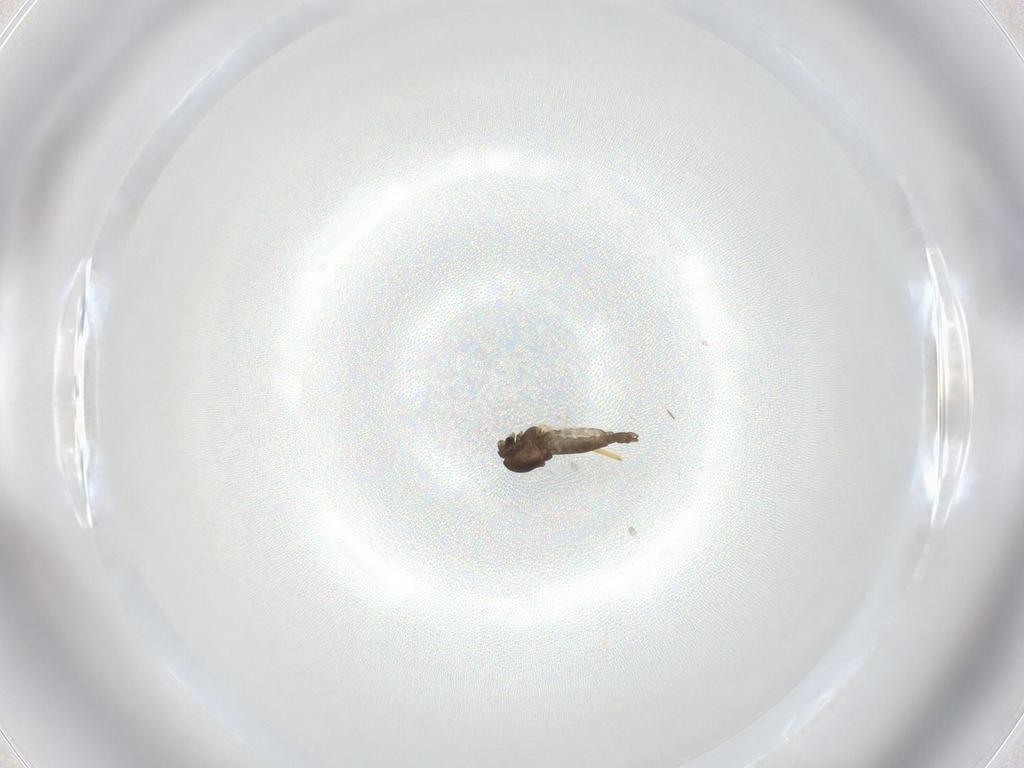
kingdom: Animalia
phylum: Arthropoda
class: Insecta
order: Diptera
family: Chironomidae
